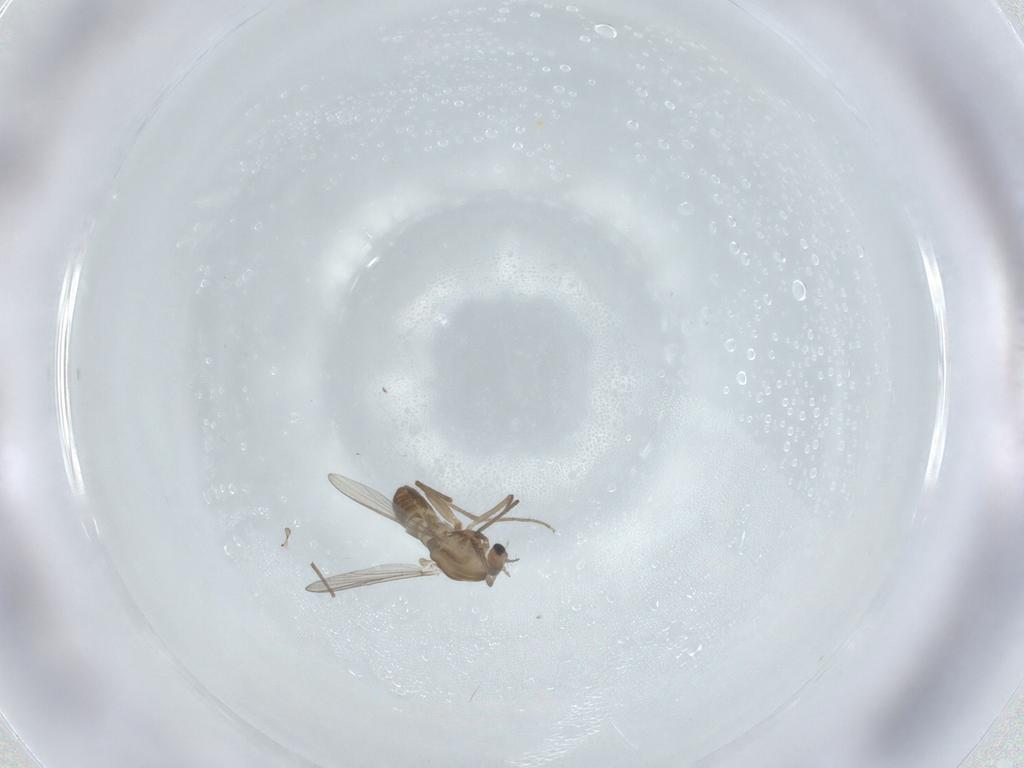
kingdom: Animalia
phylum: Arthropoda
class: Insecta
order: Diptera
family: Chironomidae
